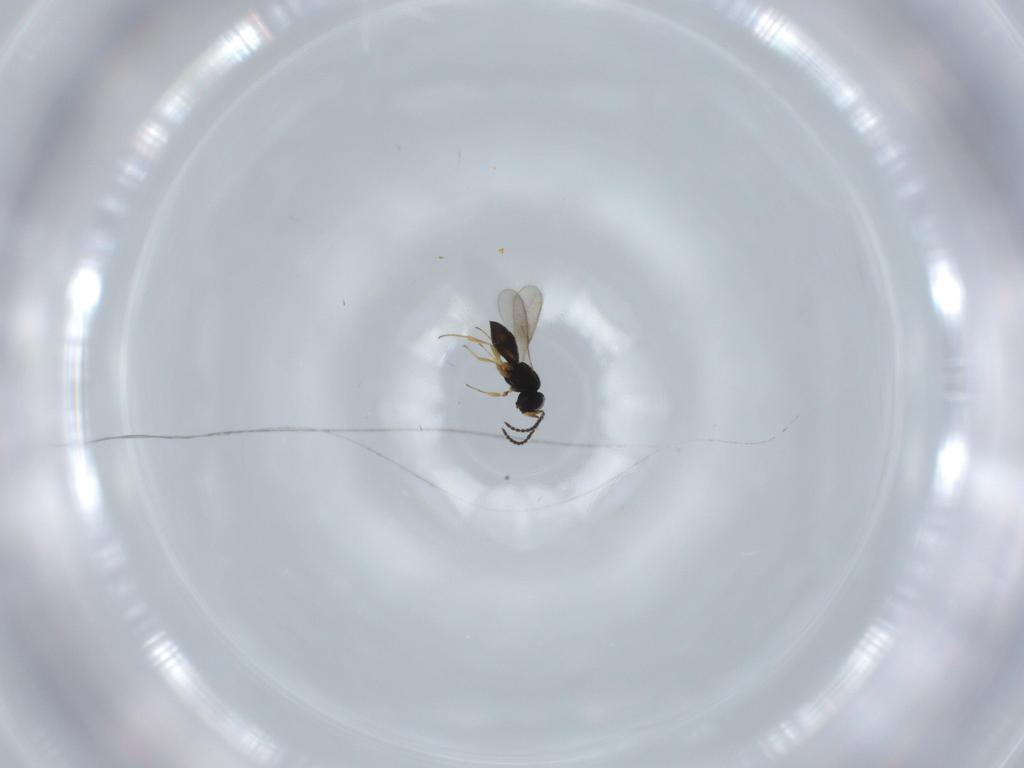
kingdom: Animalia
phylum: Arthropoda
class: Insecta
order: Hymenoptera
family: Scelionidae
